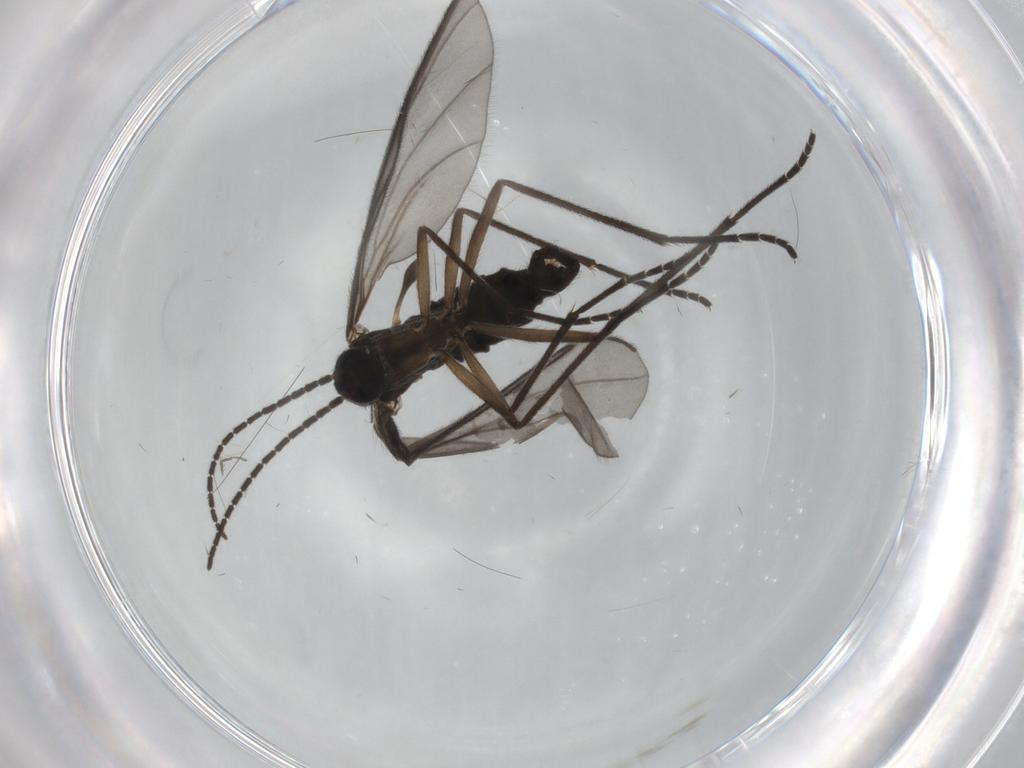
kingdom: Animalia
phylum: Arthropoda
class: Insecta
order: Diptera
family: Sciaridae
